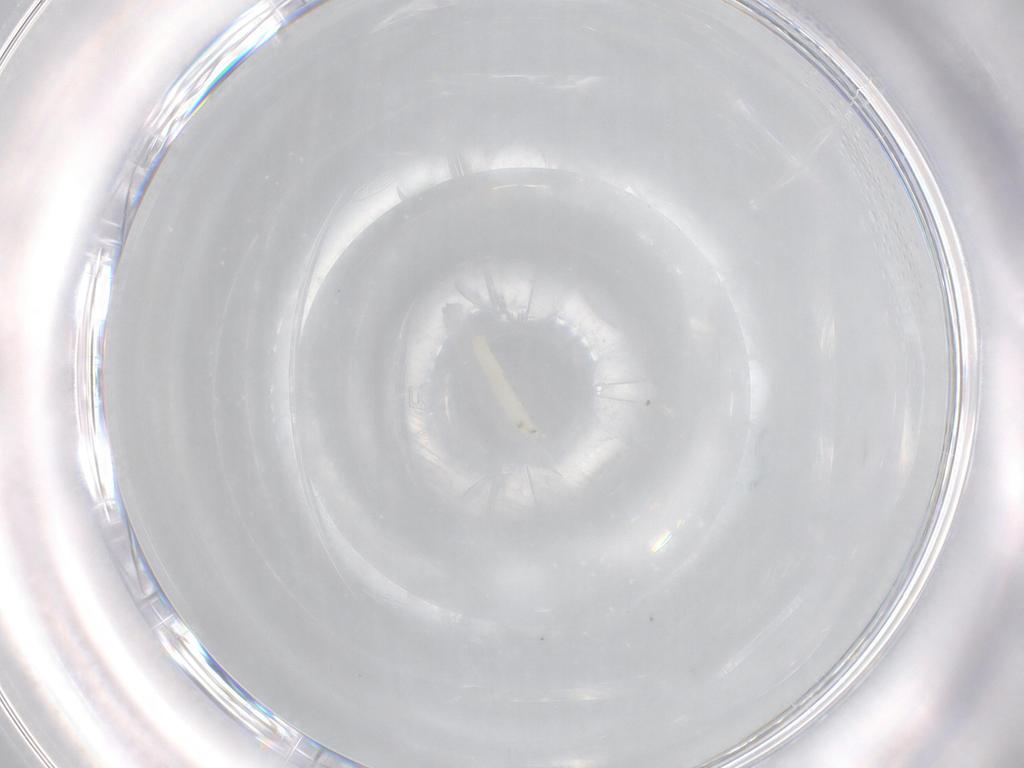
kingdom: Animalia
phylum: Arthropoda
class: Insecta
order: Diptera
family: Sarcophagidae
